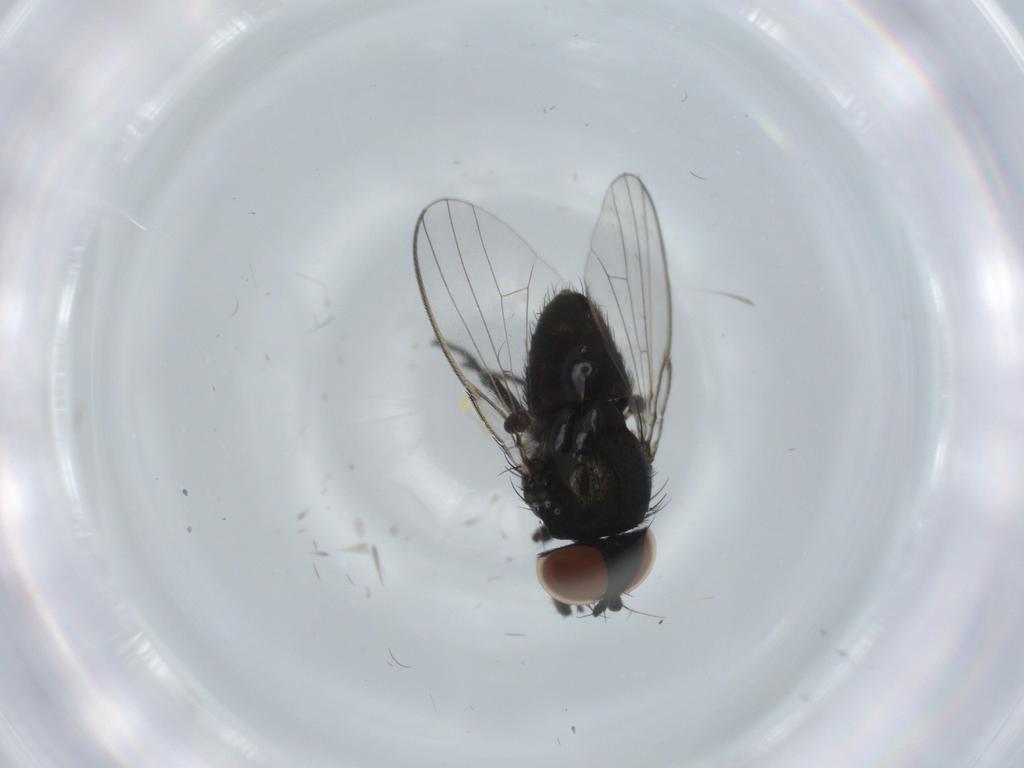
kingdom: Animalia
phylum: Arthropoda
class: Insecta
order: Diptera
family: Milichiidae
